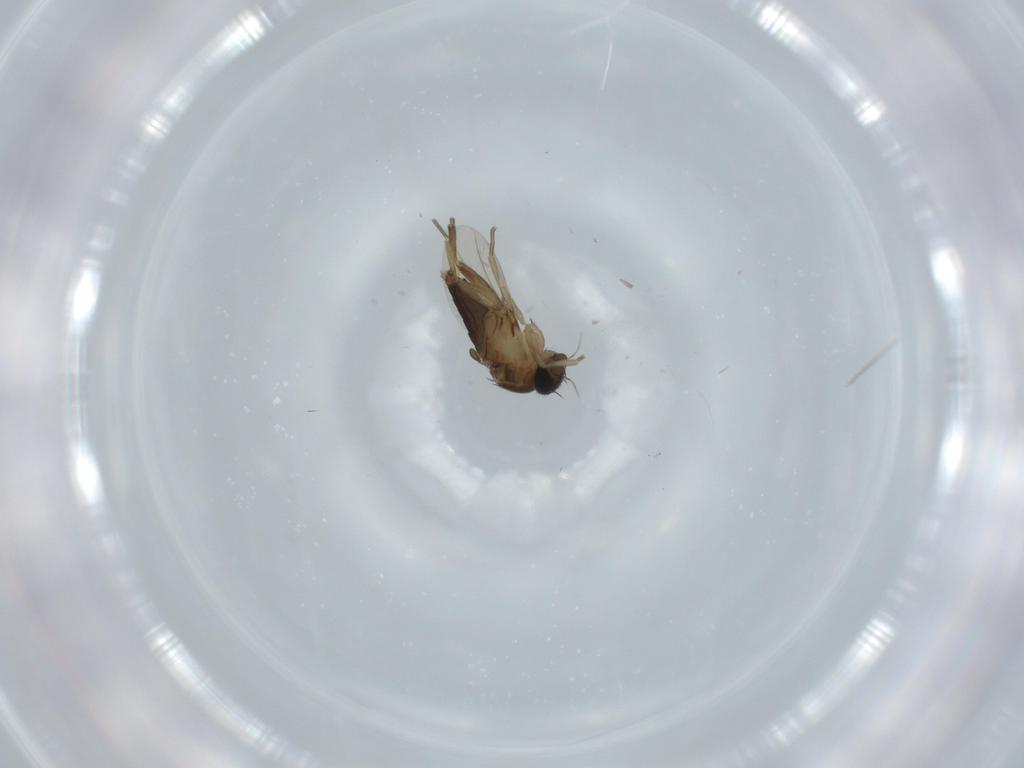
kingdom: Animalia
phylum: Arthropoda
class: Insecta
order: Diptera
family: Phoridae
